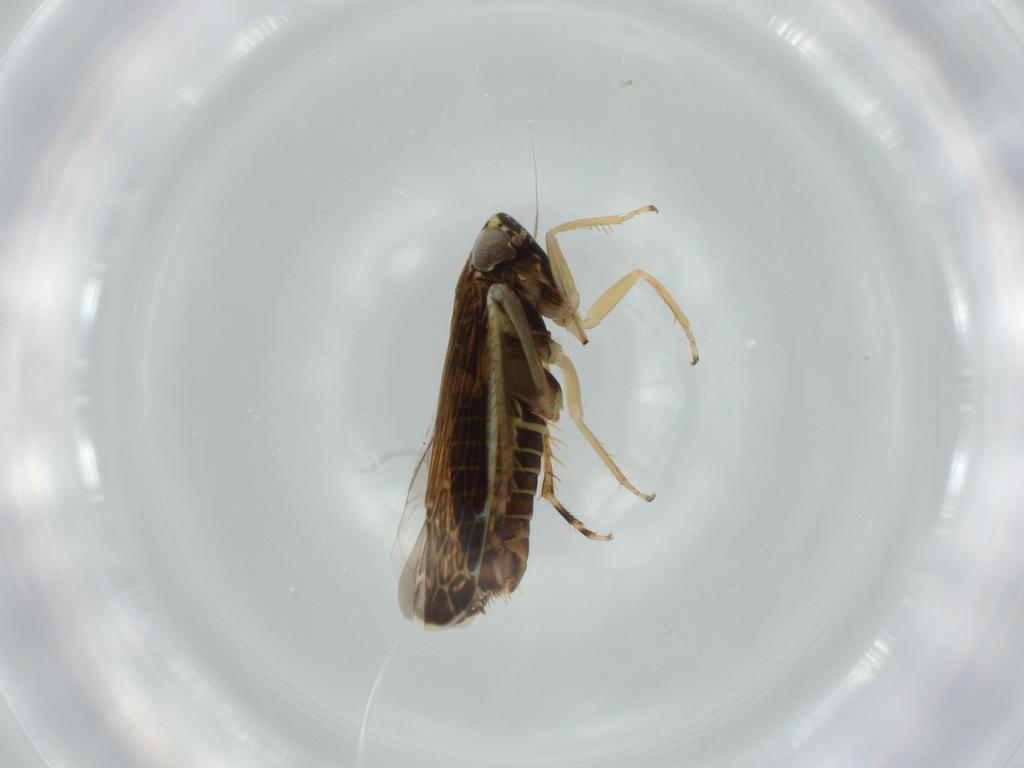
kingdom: Animalia
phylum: Arthropoda
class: Insecta
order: Hemiptera
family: Cicadellidae
